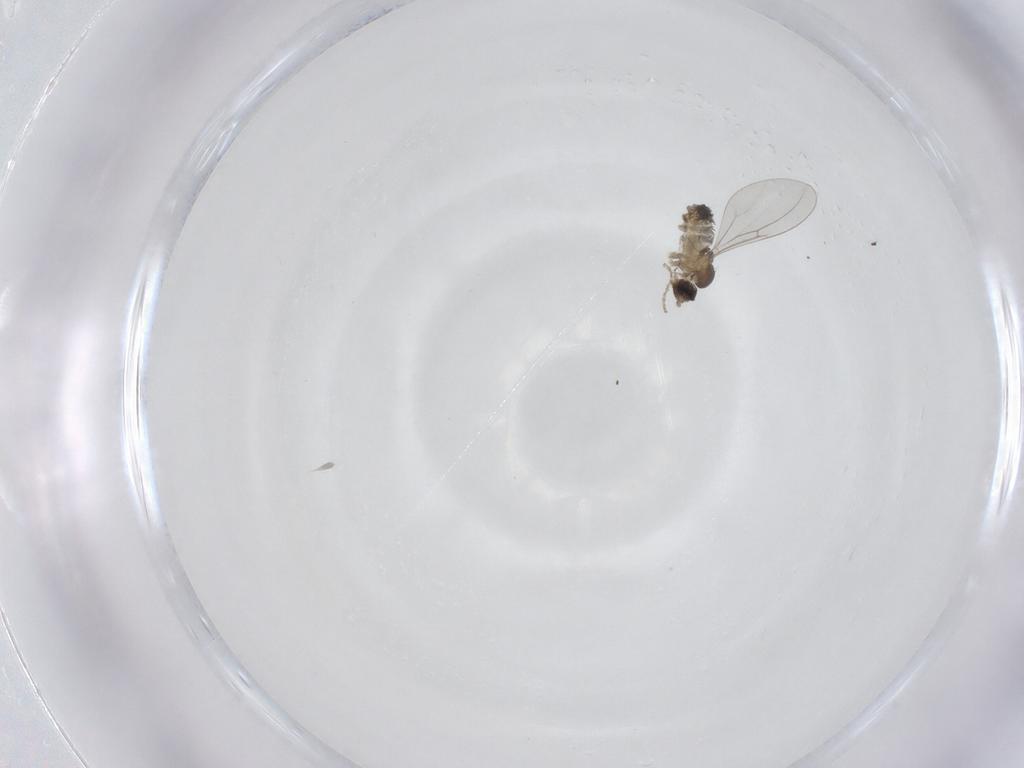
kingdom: Animalia
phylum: Arthropoda
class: Insecta
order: Diptera
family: Cecidomyiidae
